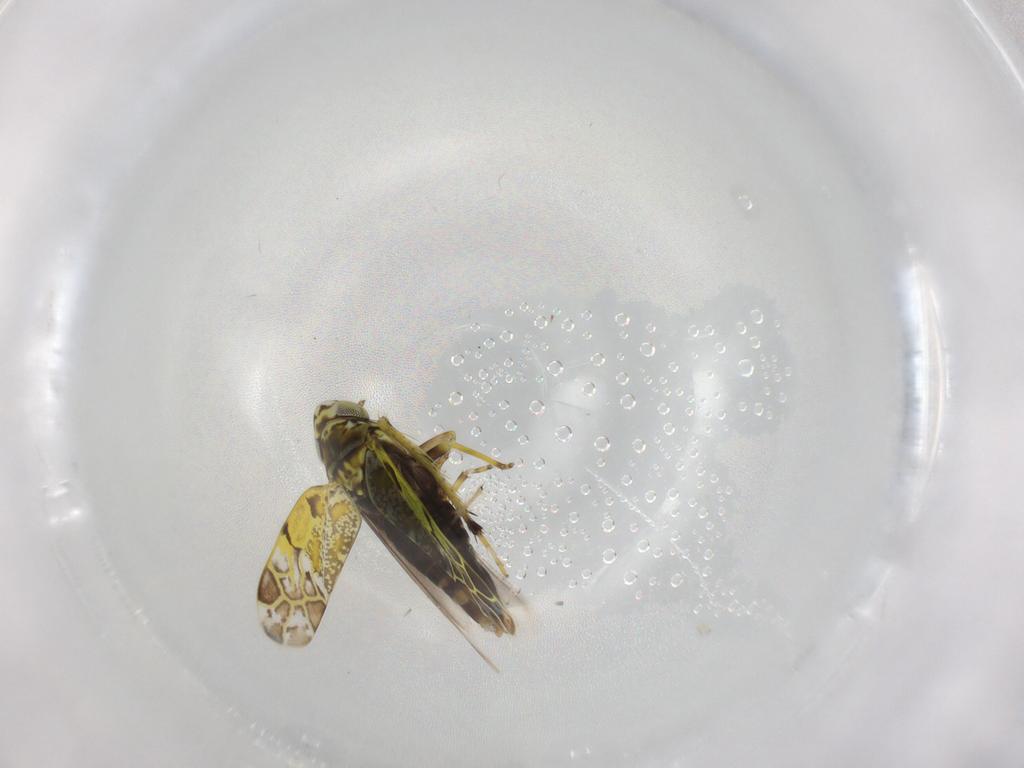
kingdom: Animalia
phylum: Arthropoda
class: Insecta
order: Hemiptera
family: Cicadellidae
